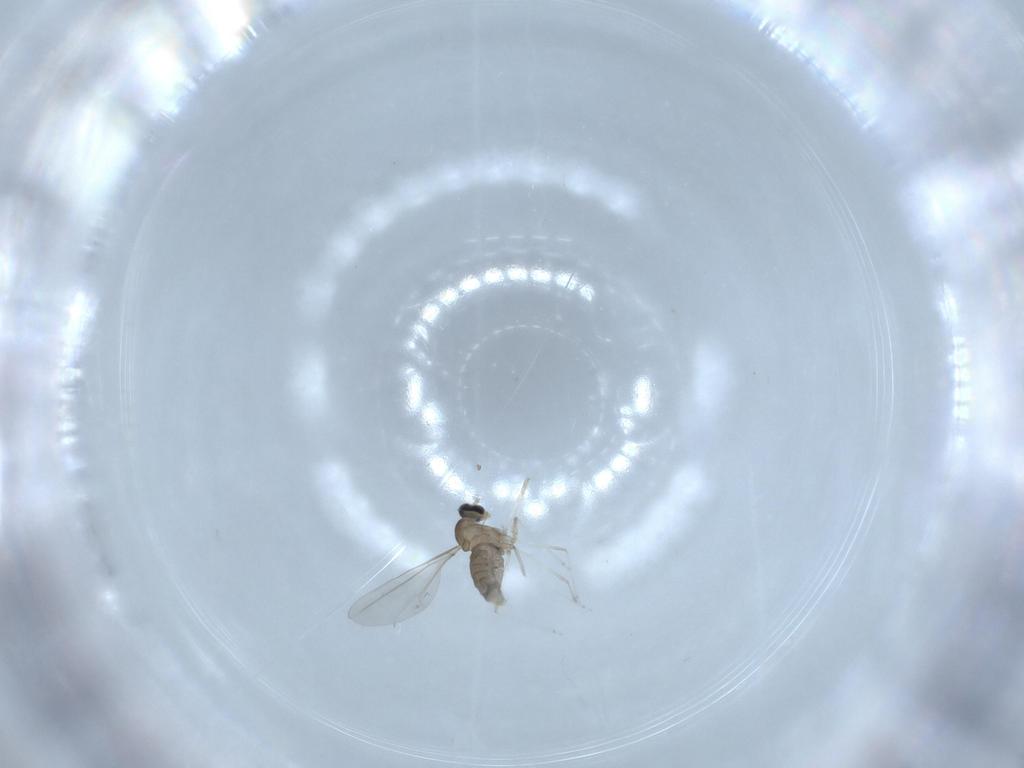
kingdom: Animalia
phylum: Arthropoda
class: Insecta
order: Diptera
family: Cecidomyiidae
